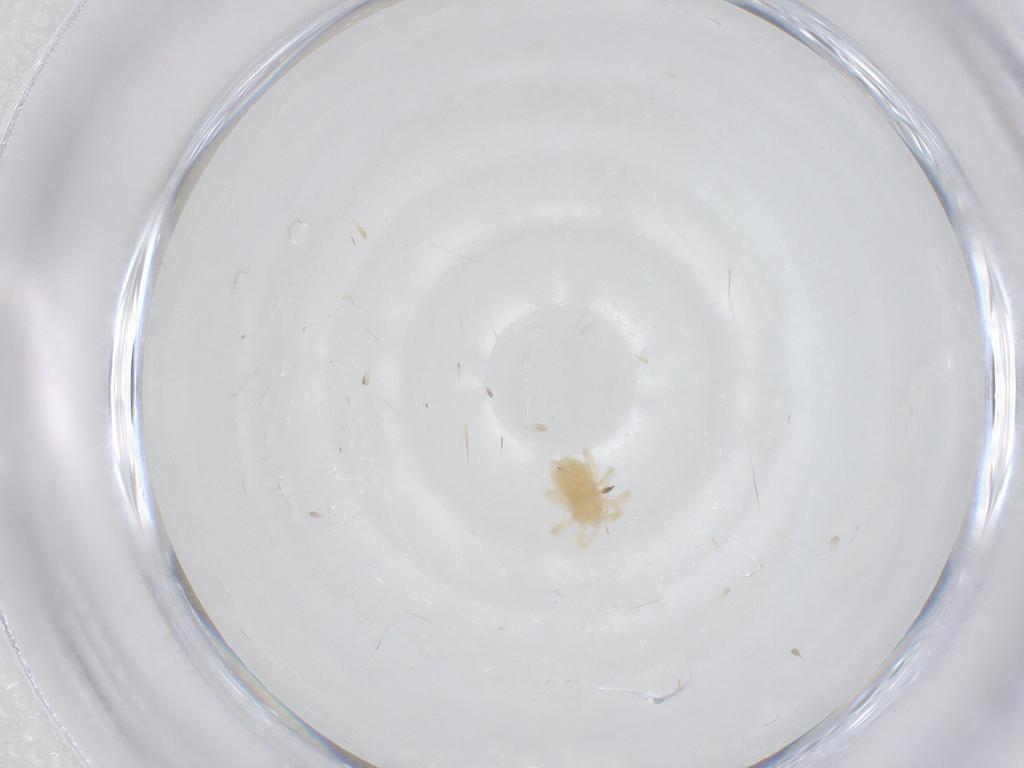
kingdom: Animalia
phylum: Arthropoda
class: Arachnida
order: Trombidiformes
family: Anystidae
